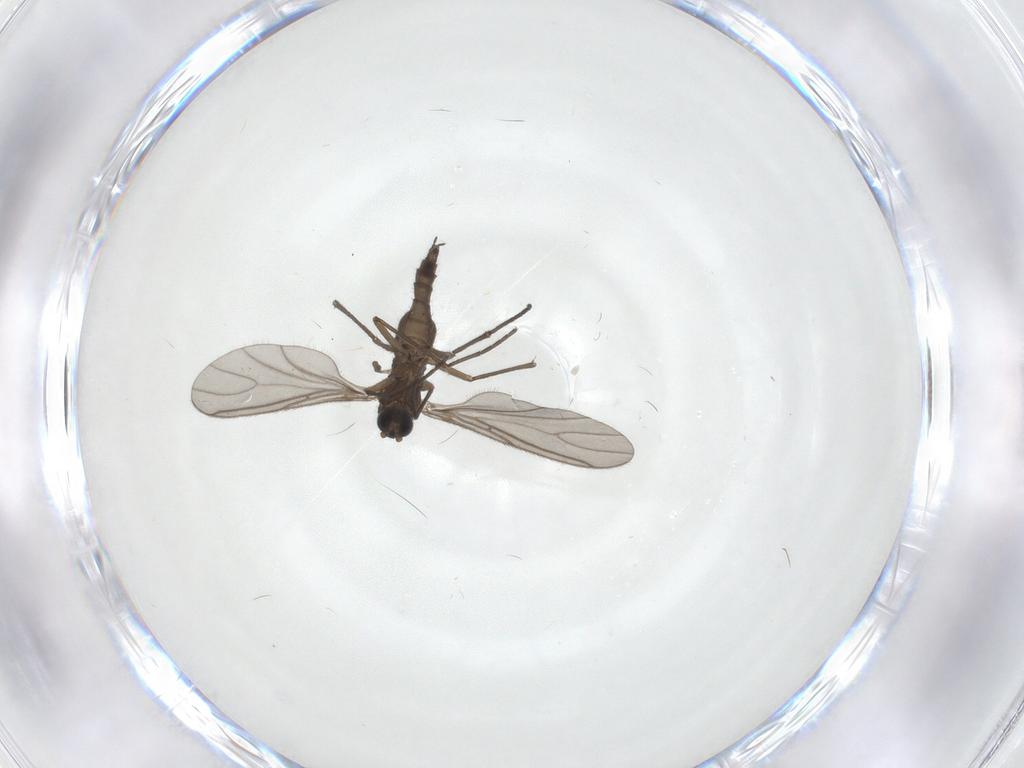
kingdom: Animalia
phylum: Arthropoda
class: Insecta
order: Diptera
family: Sciaridae
